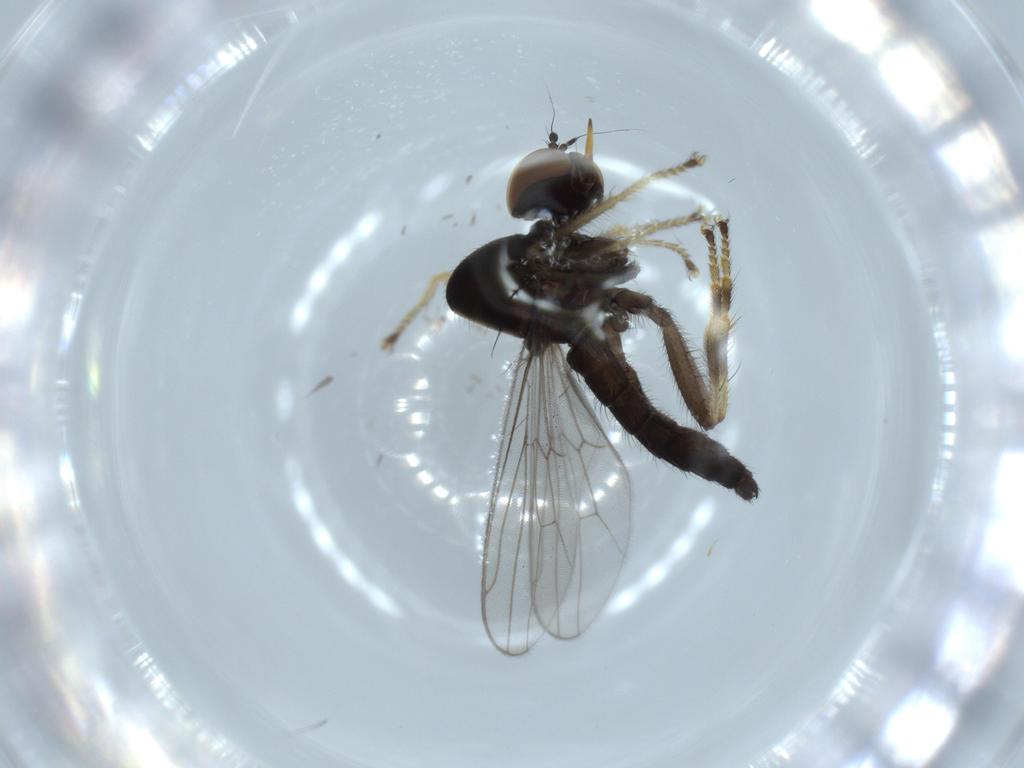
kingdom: Animalia
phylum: Arthropoda
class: Insecta
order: Diptera
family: Hybotidae
